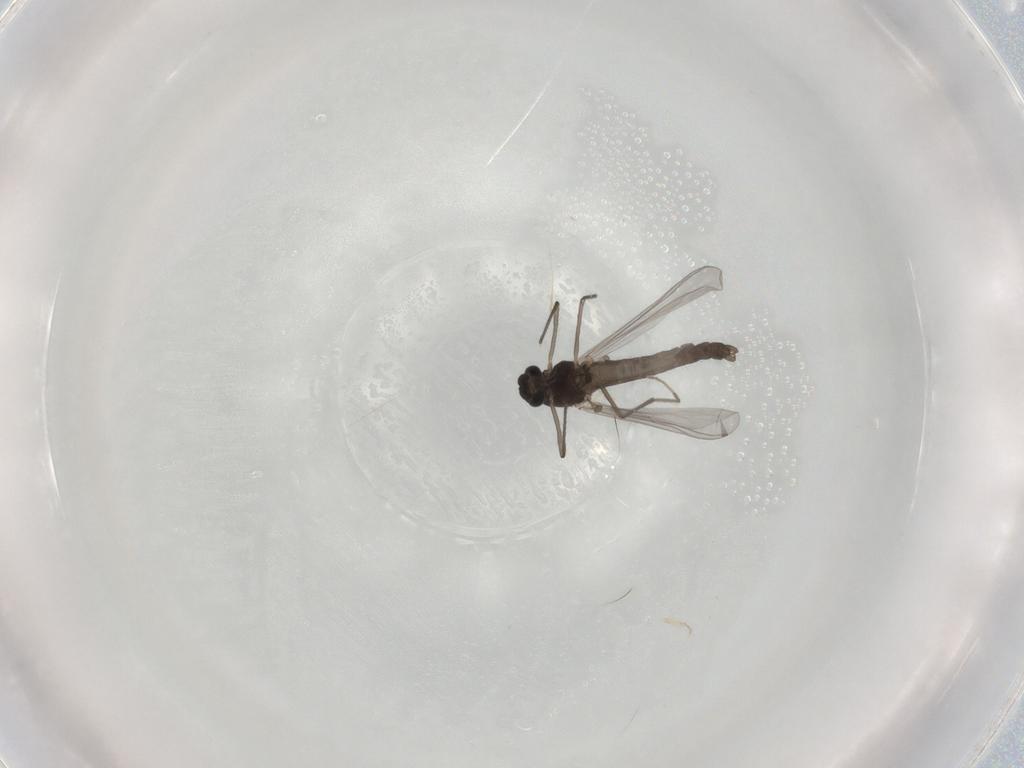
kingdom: Animalia
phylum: Arthropoda
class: Insecta
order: Diptera
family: Chironomidae
